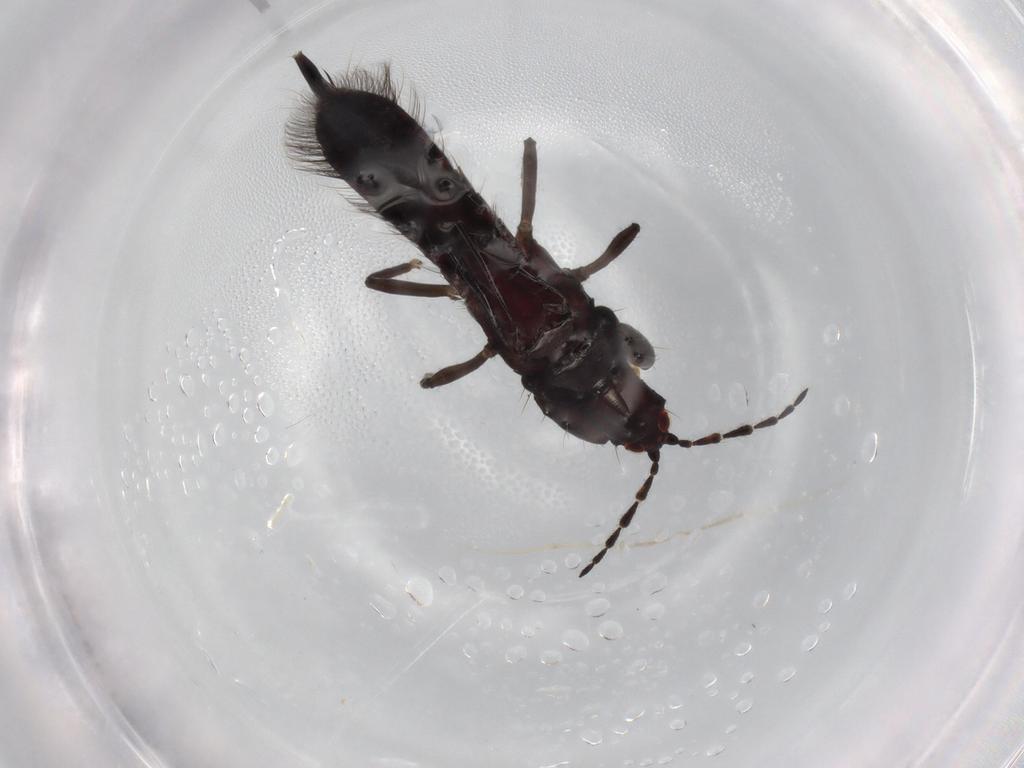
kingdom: Animalia
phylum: Arthropoda
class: Insecta
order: Thysanoptera
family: Phlaeothripidae
